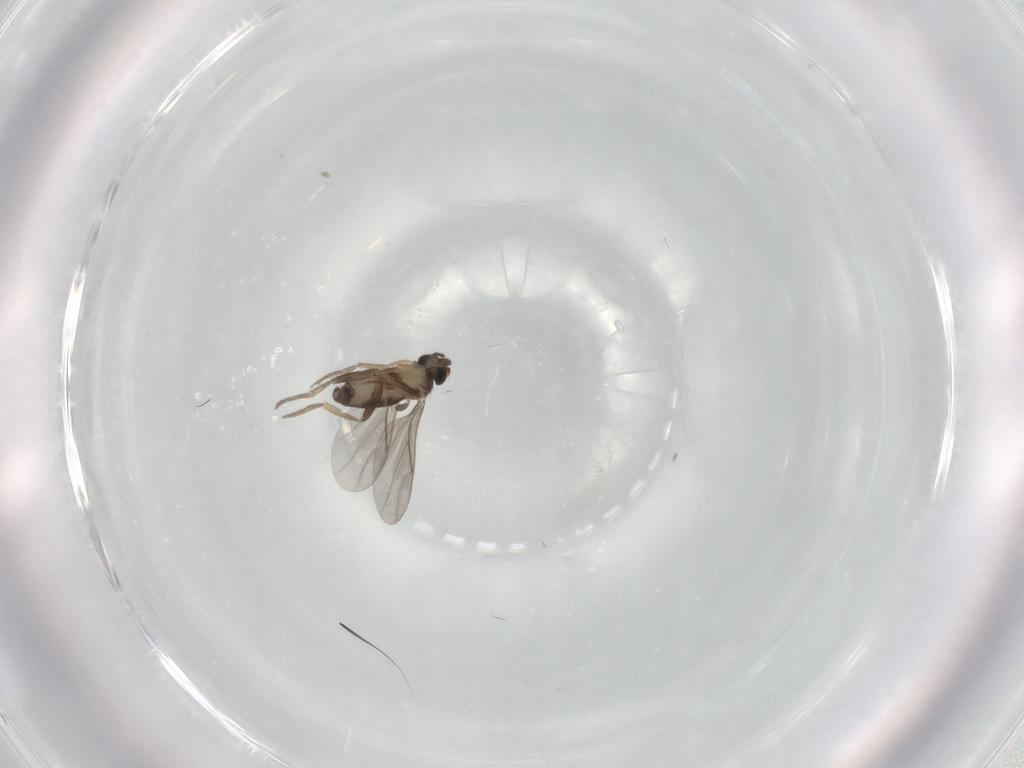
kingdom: Animalia
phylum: Arthropoda
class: Insecta
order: Diptera
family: Phoridae
